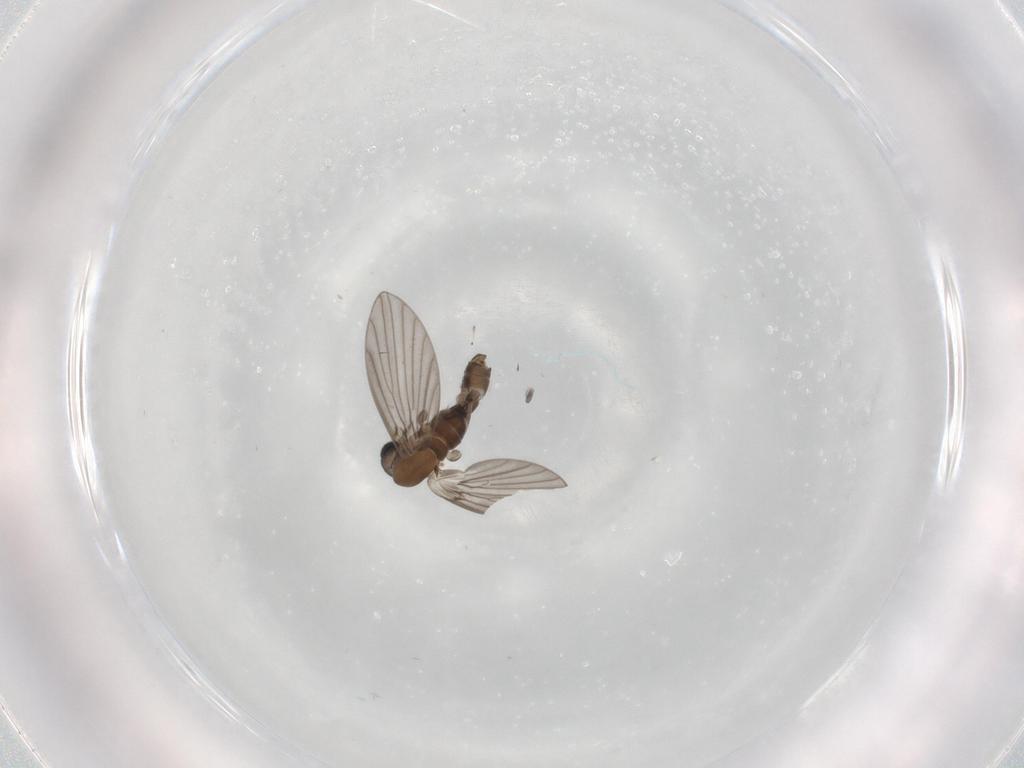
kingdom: Animalia
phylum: Arthropoda
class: Insecta
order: Diptera
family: Psychodidae
